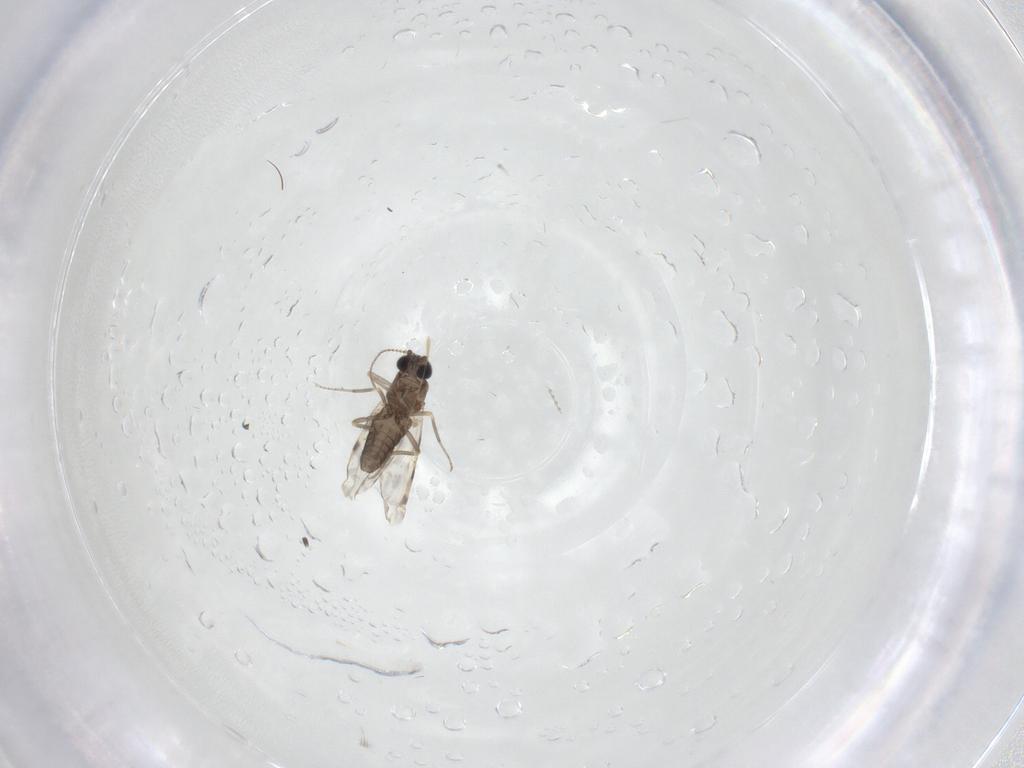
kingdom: Animalia
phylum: Arthropoda
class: Insecta
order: Diptera
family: Ceratopogonidae
